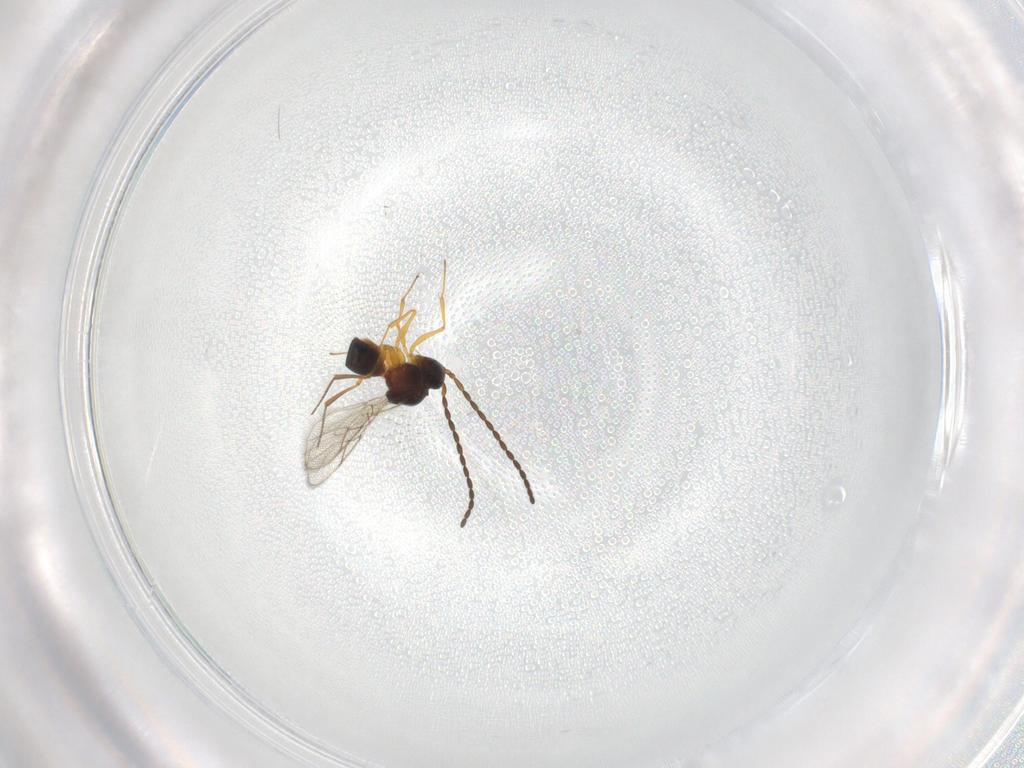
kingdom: Animalia
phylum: Arthropoda
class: Insecta
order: Hymenoptera
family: Figitidae
